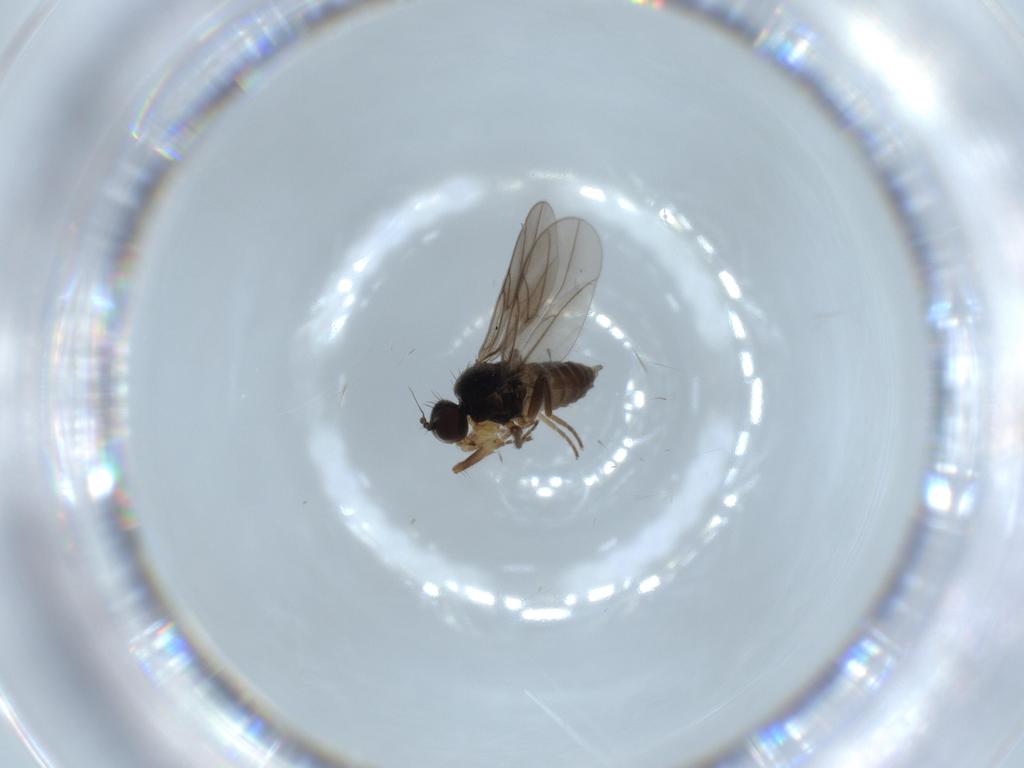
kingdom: Animalia
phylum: Arthropoda
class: Insecta
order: Diptera
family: Hybotidae
